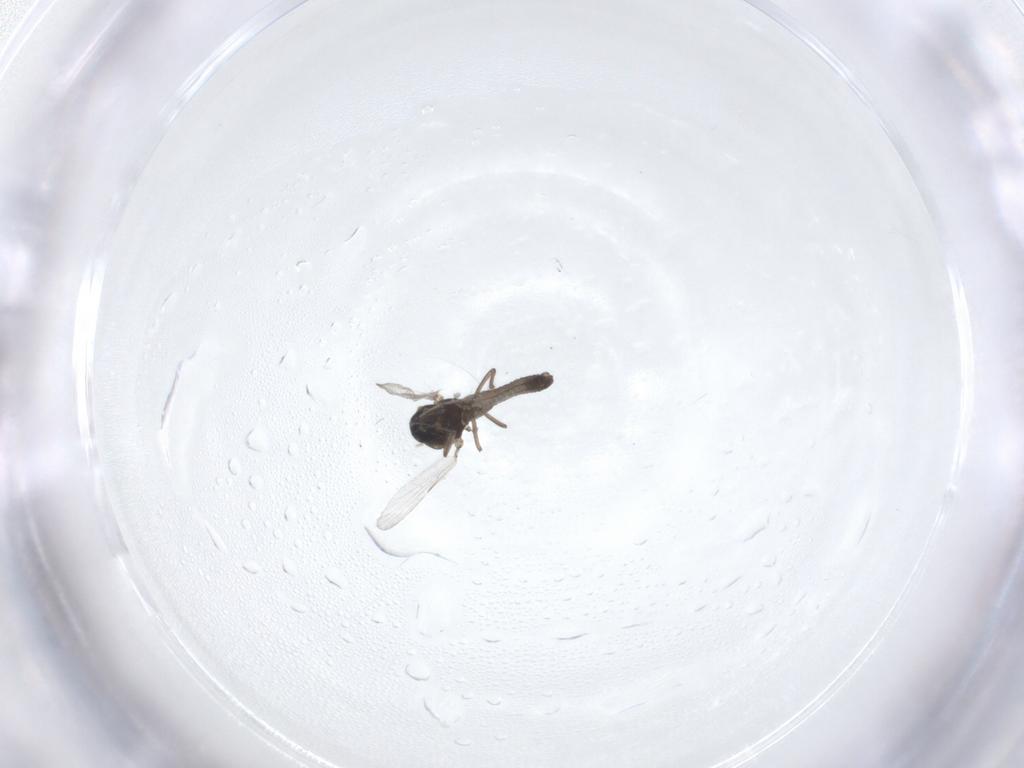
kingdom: Animalia
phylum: Arthropoda
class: Insecta
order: Diptera
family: Ceratopogonidae
